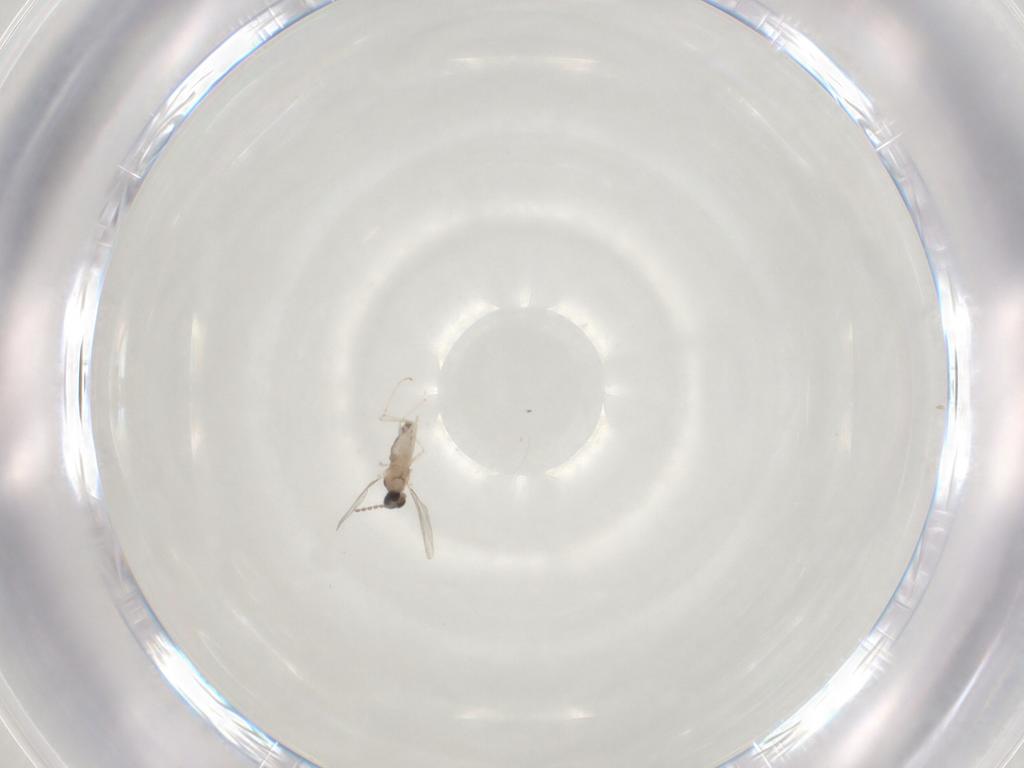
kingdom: Animalia
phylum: Arthropoda
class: Insecta
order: Diptera
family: Cecidomyiidae
